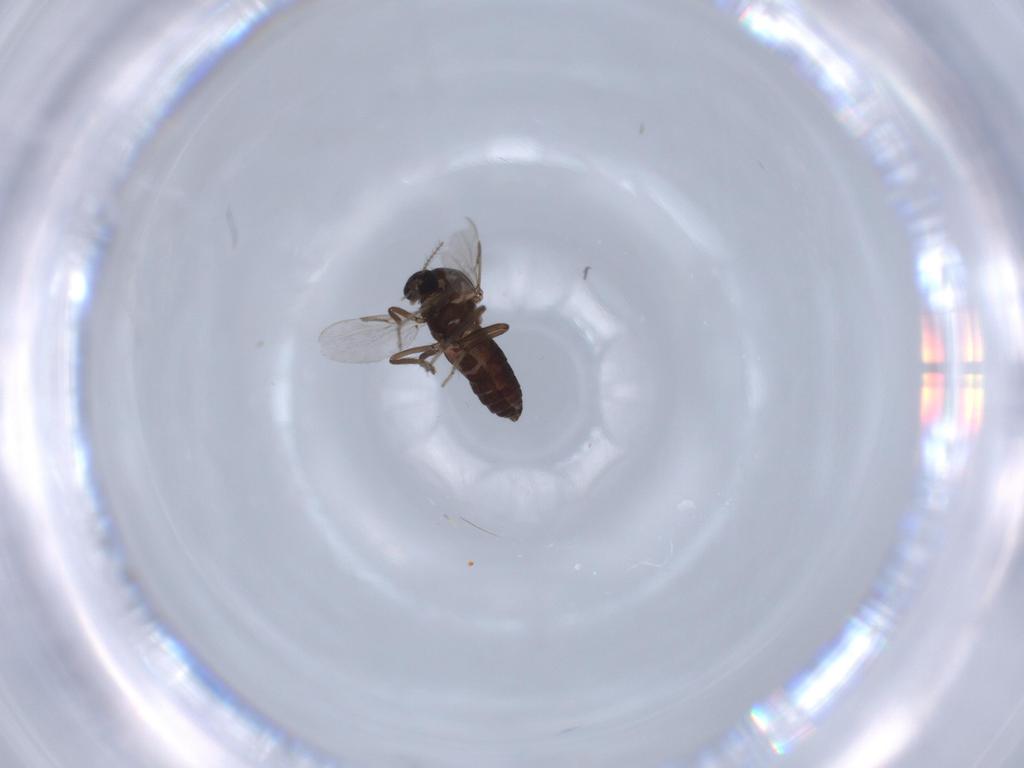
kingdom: Animalia
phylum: Arthropoda
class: Insecta
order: Diptera
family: Ceratopogonidae
